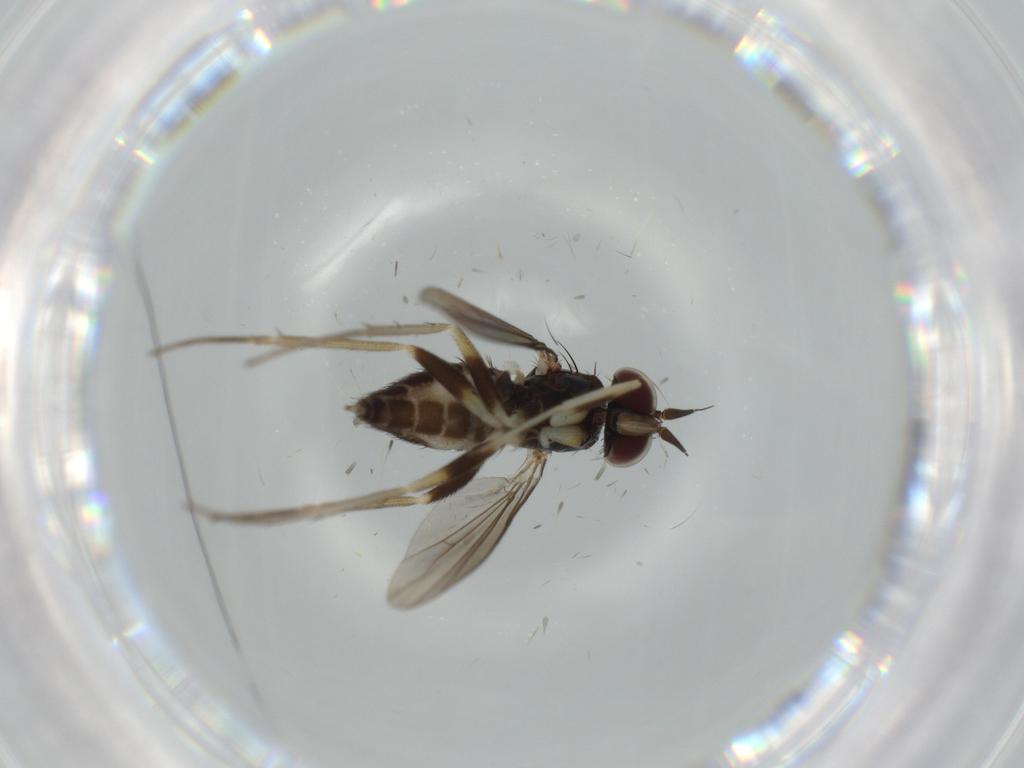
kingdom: Animalia
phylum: Arthropoda
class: Insecta
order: Diptera
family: Dolichopodidae
